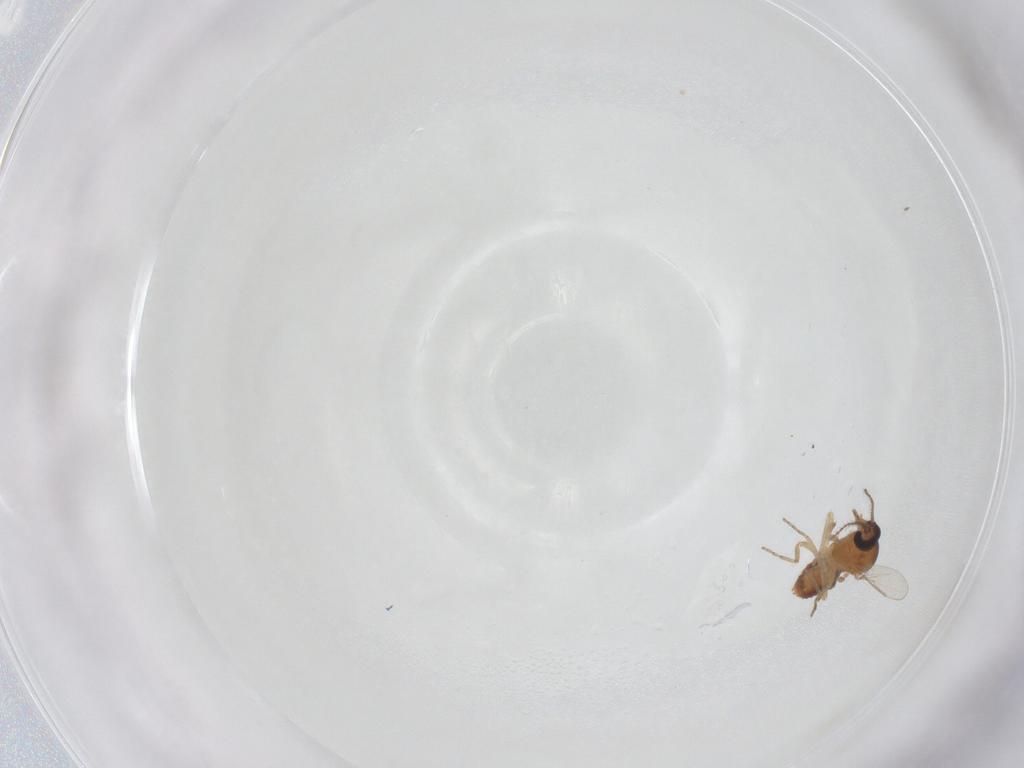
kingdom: Animalia
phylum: Arthropoda
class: Insecta
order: Diptera
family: Ceratopogonidae
